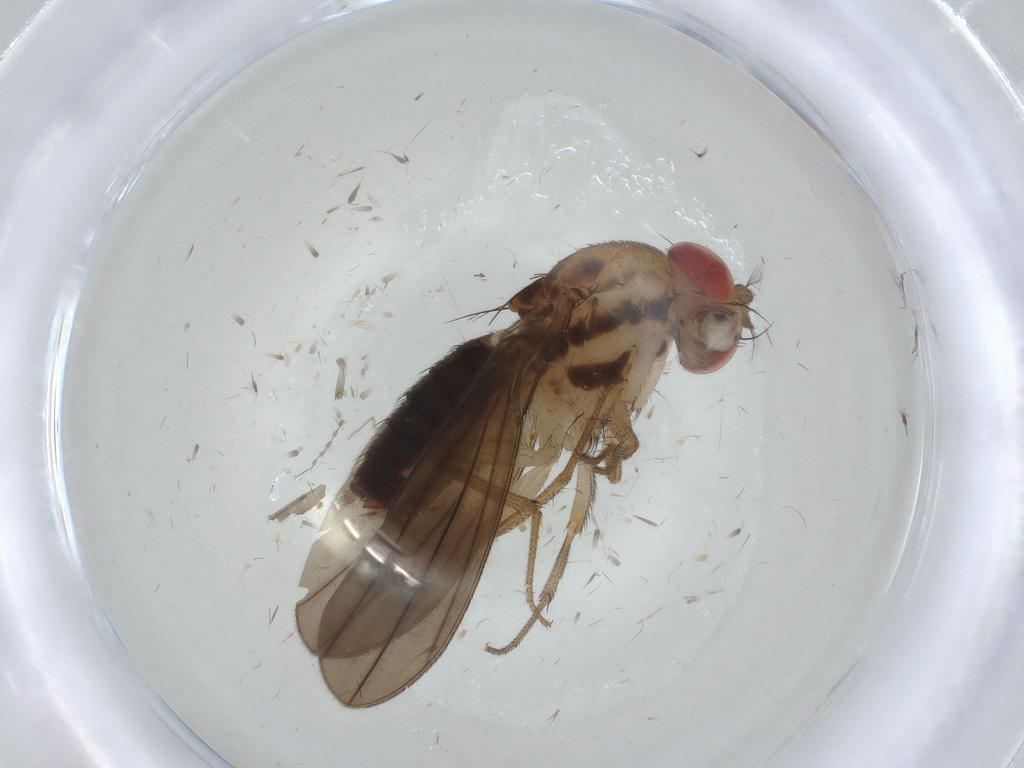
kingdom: Animalia
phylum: Arthropoda
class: Insecta
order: Diptera
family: Drosophilidae
